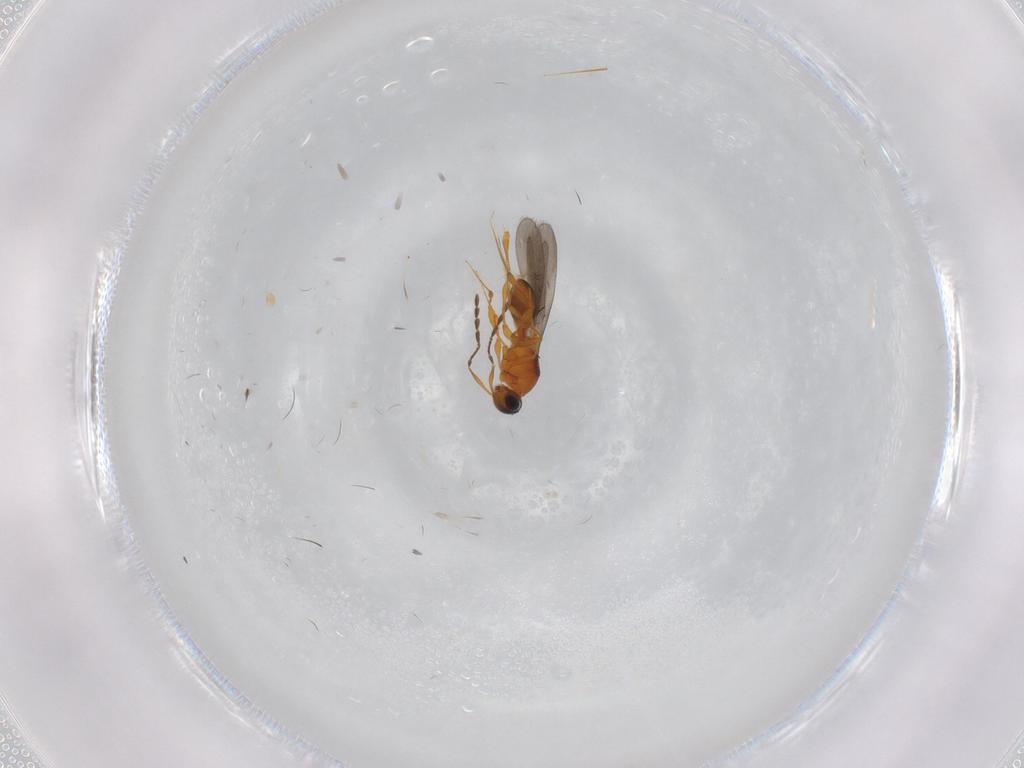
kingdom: Animalia
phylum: Arthropoda
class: Insecta
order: Hymenoptera
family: Platygastridae
